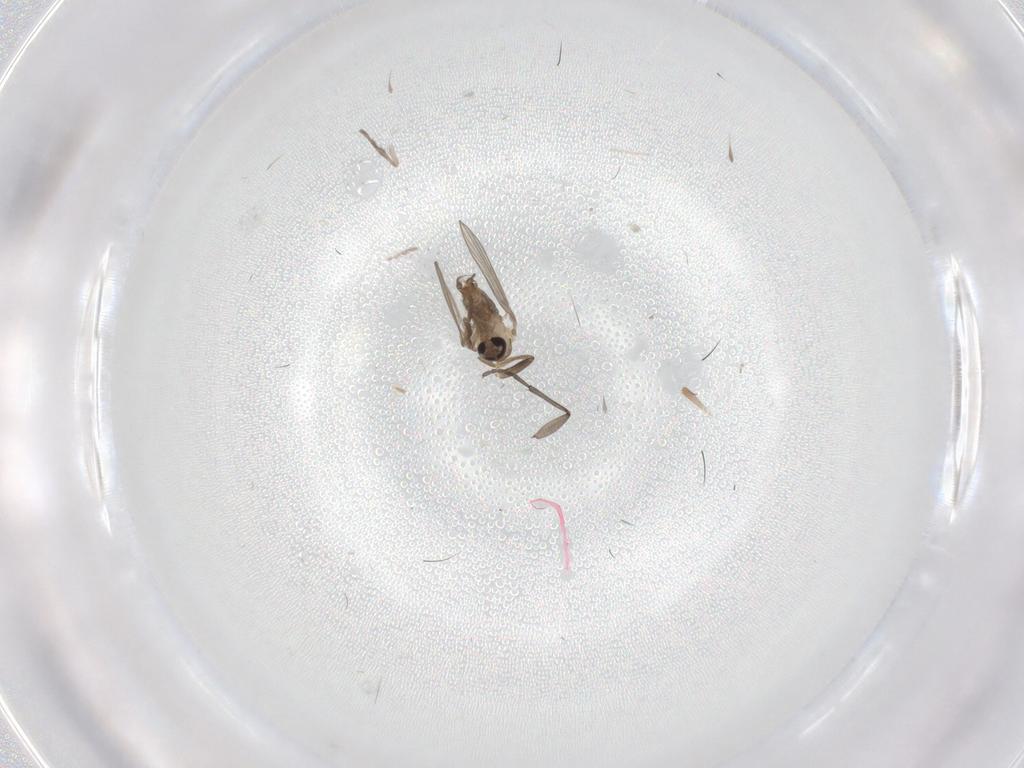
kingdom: Animalia
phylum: Arthropoda
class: Insecta
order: Diptera
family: Psychodidae
